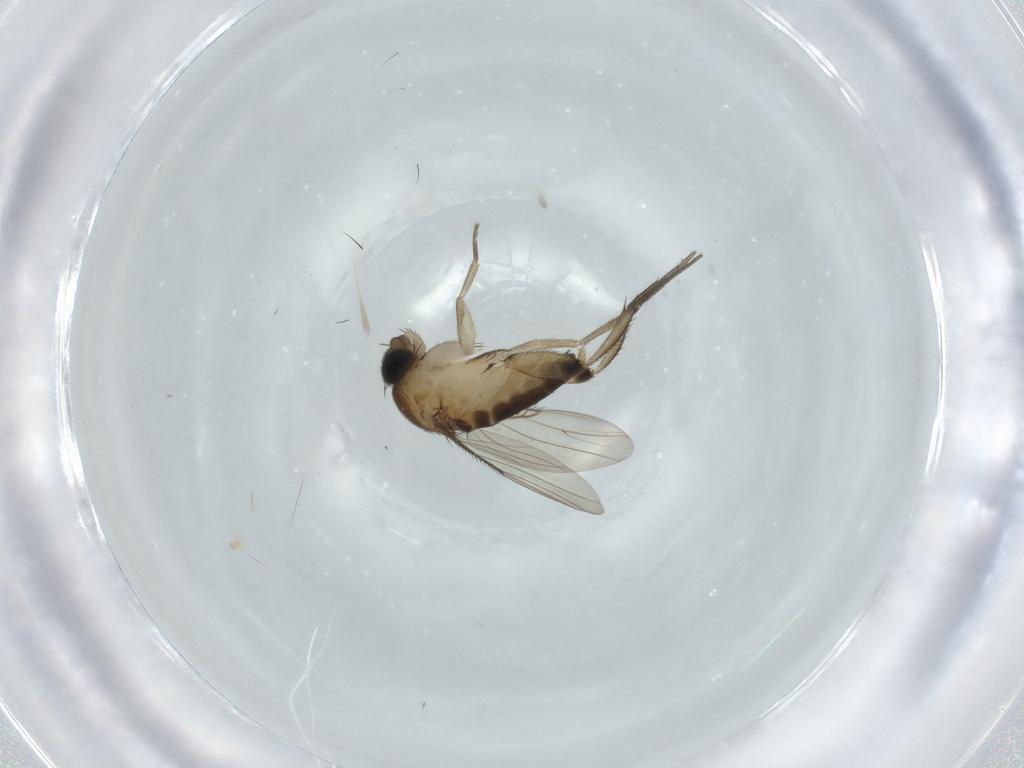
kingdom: Animalia
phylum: Arthropoda
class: Insecta
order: Diptera
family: Phoridae
